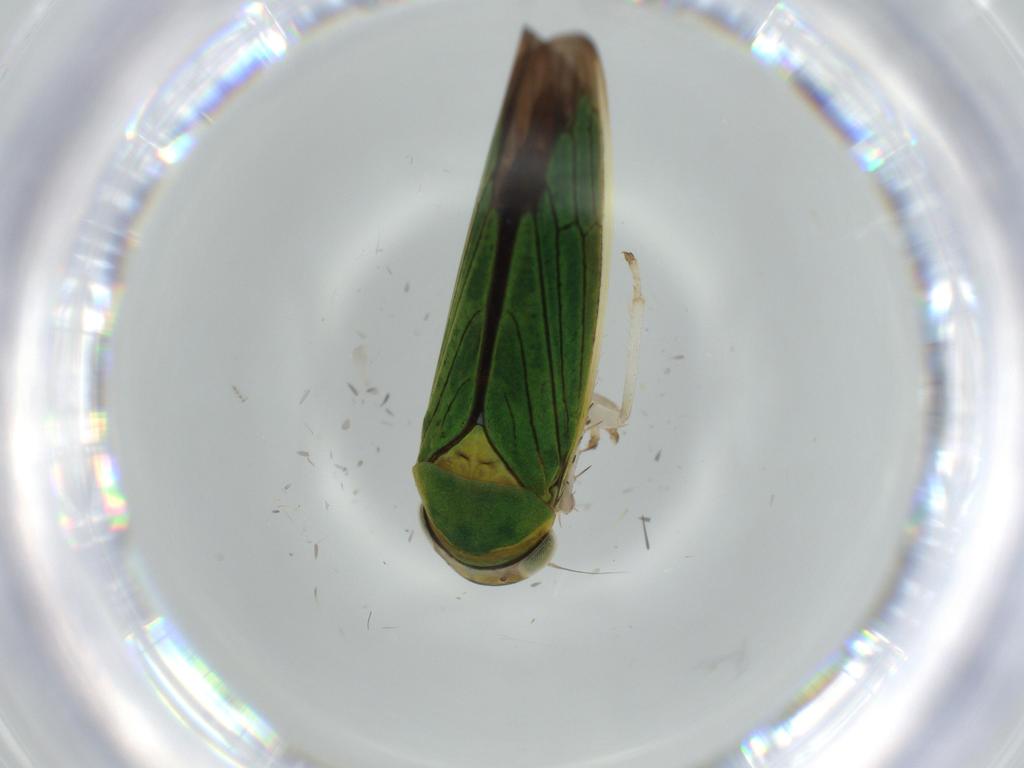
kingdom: Animalia
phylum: Arthropoda
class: Insecta
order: Hemiptera
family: Cicadellidae
